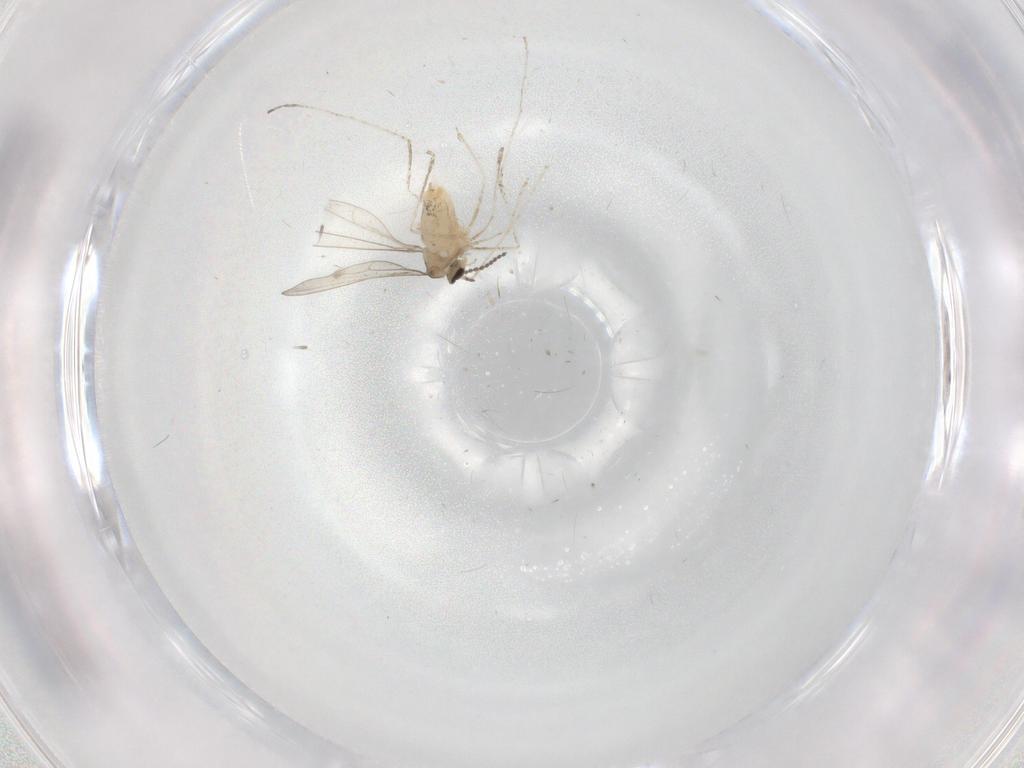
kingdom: Animalia
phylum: Arthropoda
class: Insecta
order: Diptera
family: Cecidomyiidae
